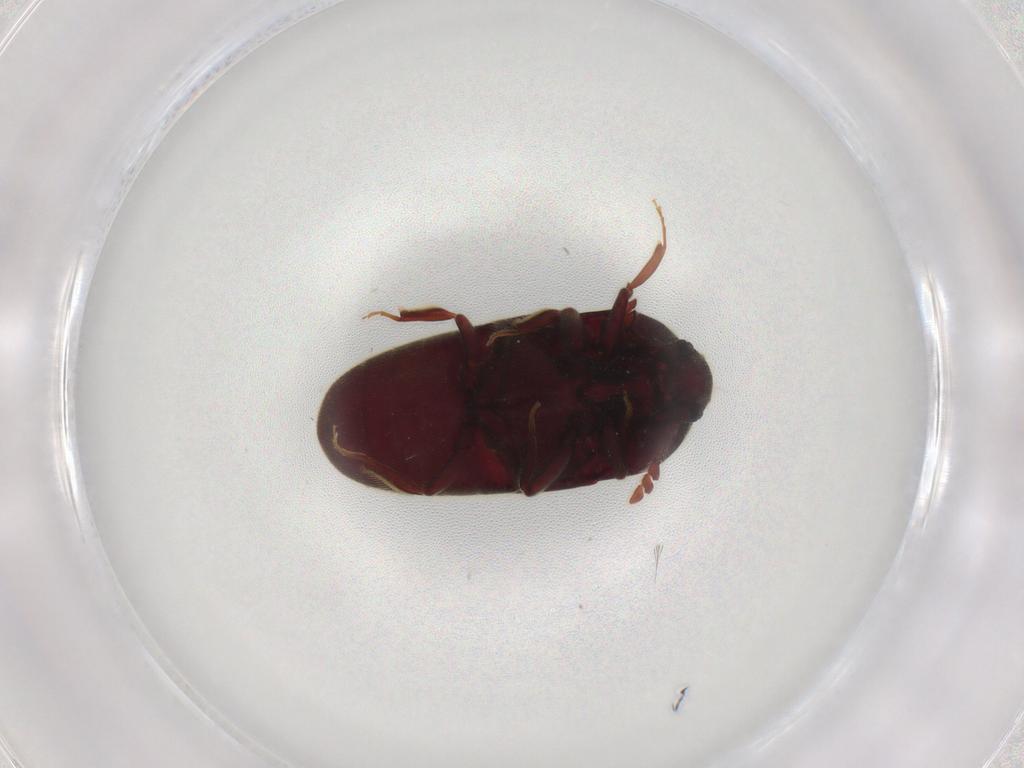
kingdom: Animalia
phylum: Arthropoda
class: Insecta
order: Coleoptera
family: Throscidae
